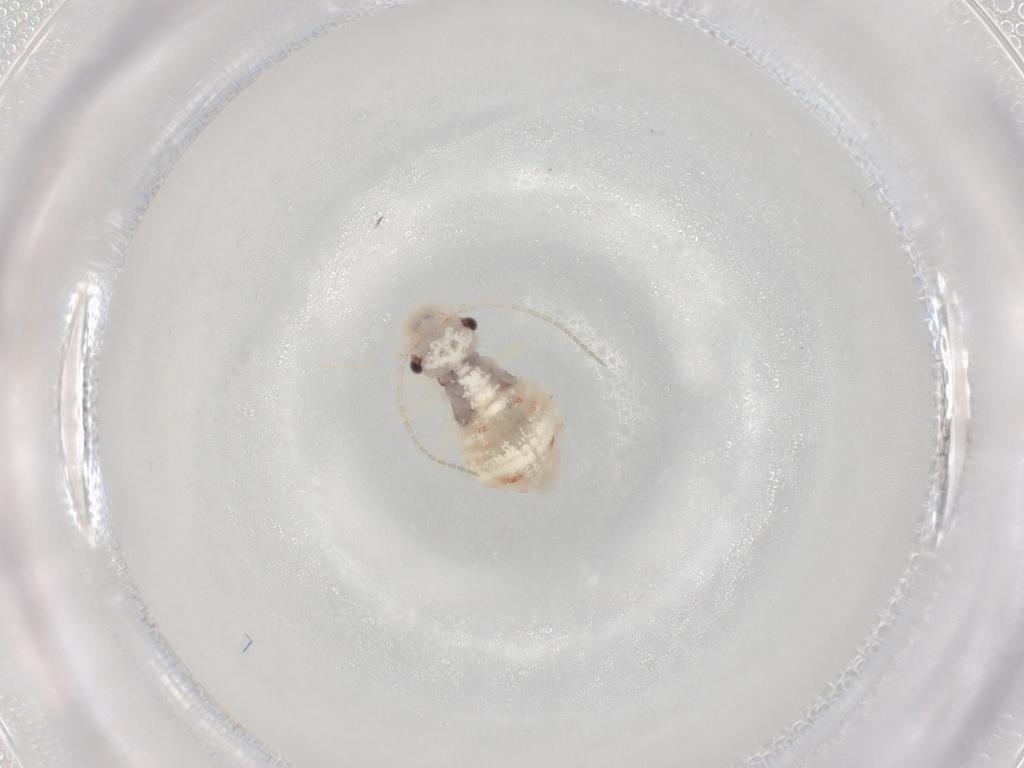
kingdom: Animalia
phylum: Arthropoda
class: Insecta
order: Psocodea
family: Amphipsocidae
